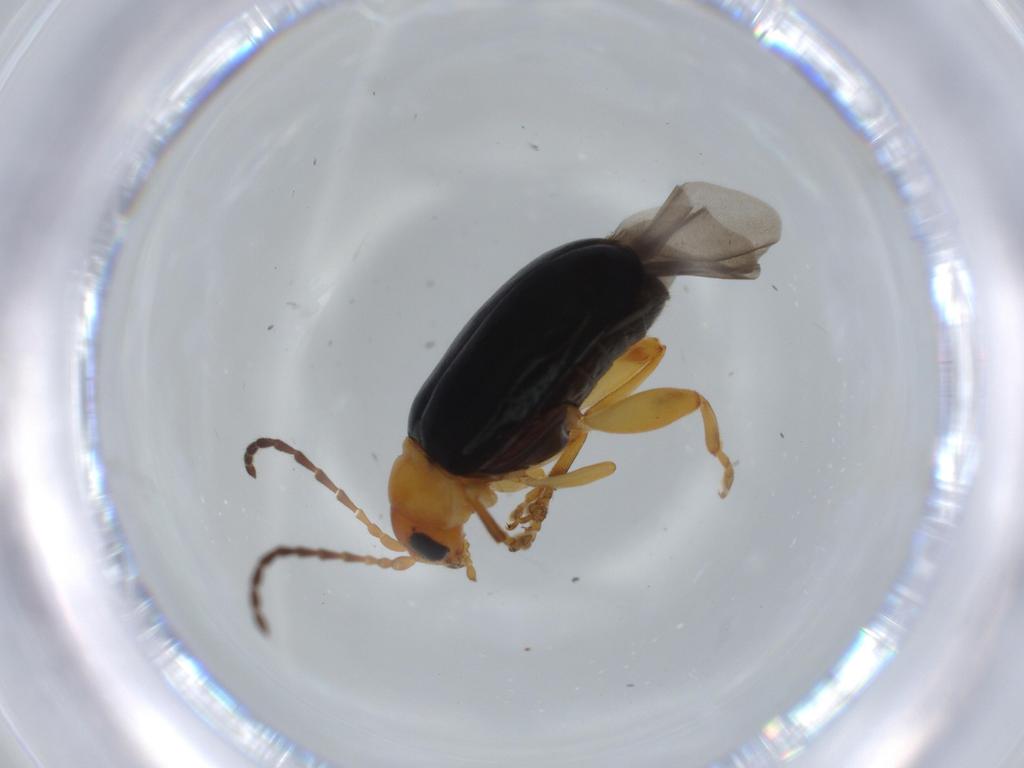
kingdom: Animalia
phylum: Arthropoda
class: Insecta
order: Coleoptera
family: Chrysomelidae
